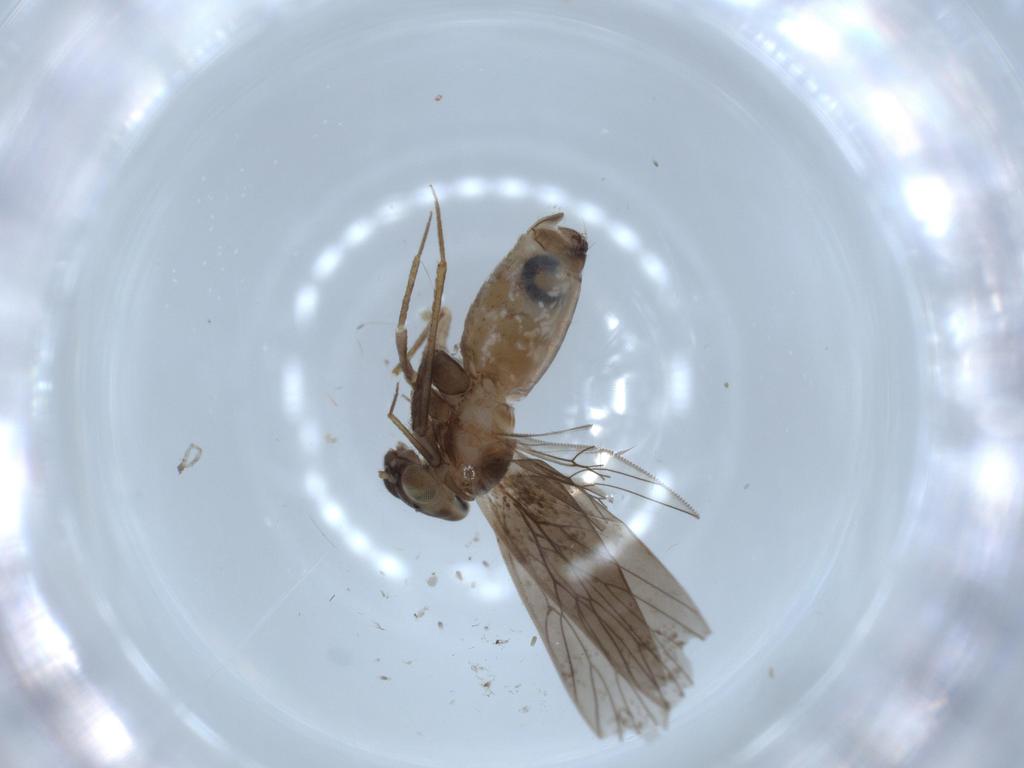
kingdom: Animalia
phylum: Arthropoda
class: Insecta
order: Psocodea
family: Lepidopsocidae
